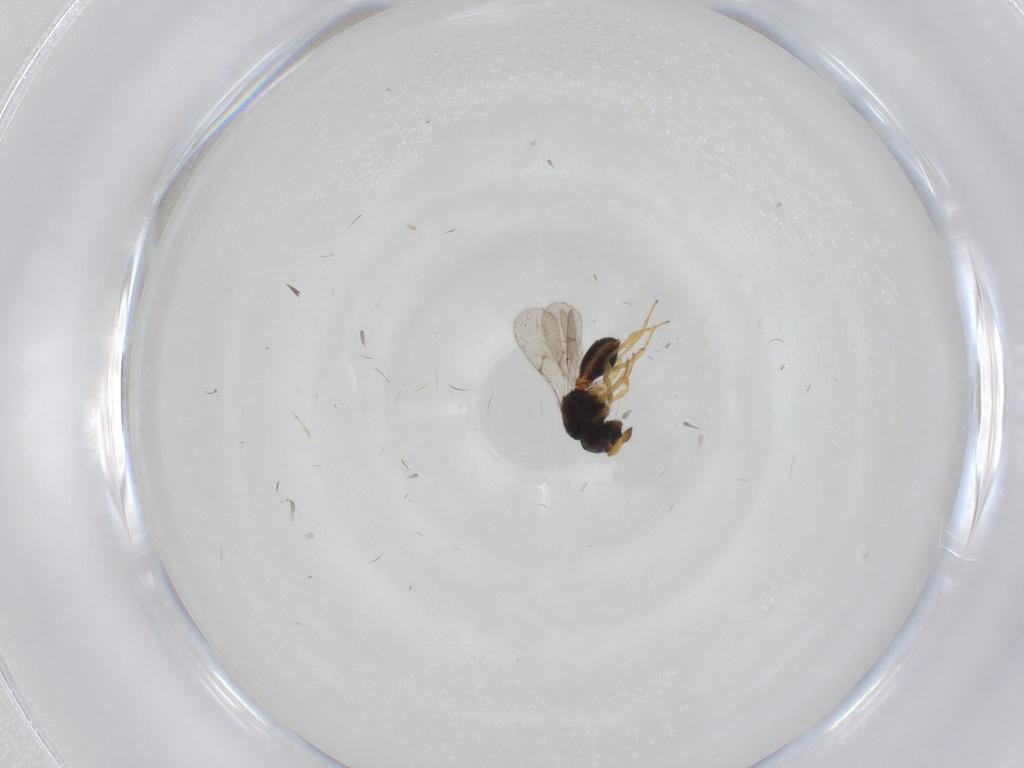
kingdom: Animalia
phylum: Arthropoda
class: Insecta
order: Hymenoptera
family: Scelionidae
